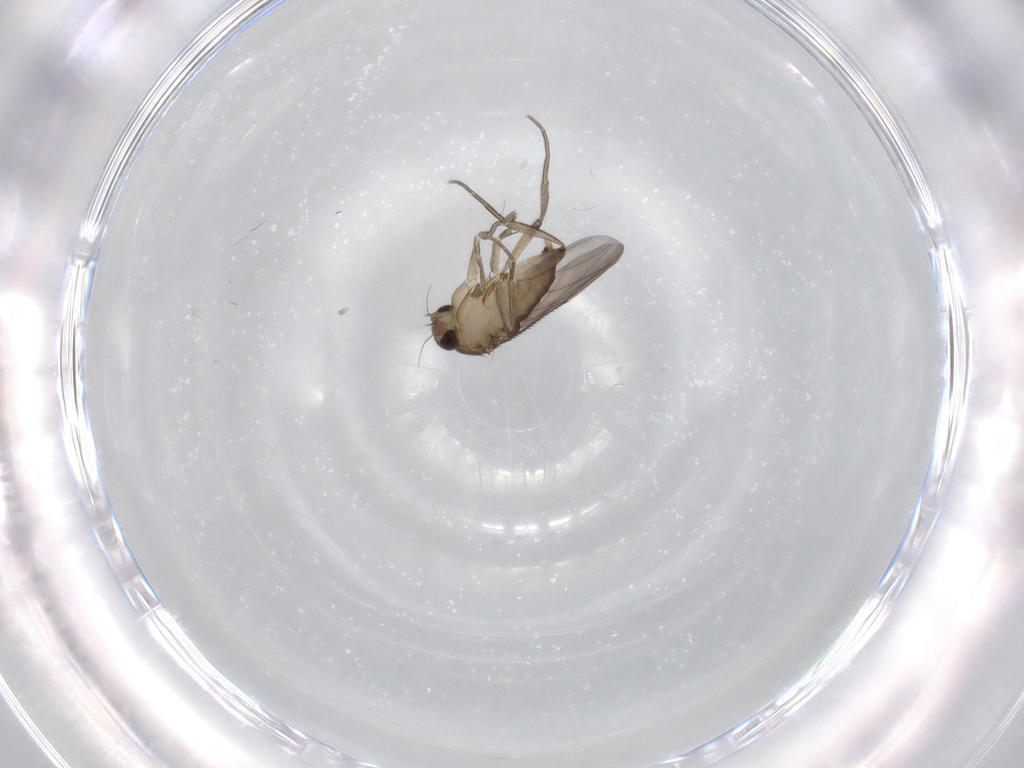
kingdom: Animalia
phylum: Arthropoda
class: Insecta
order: Diptera
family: Phoridae
